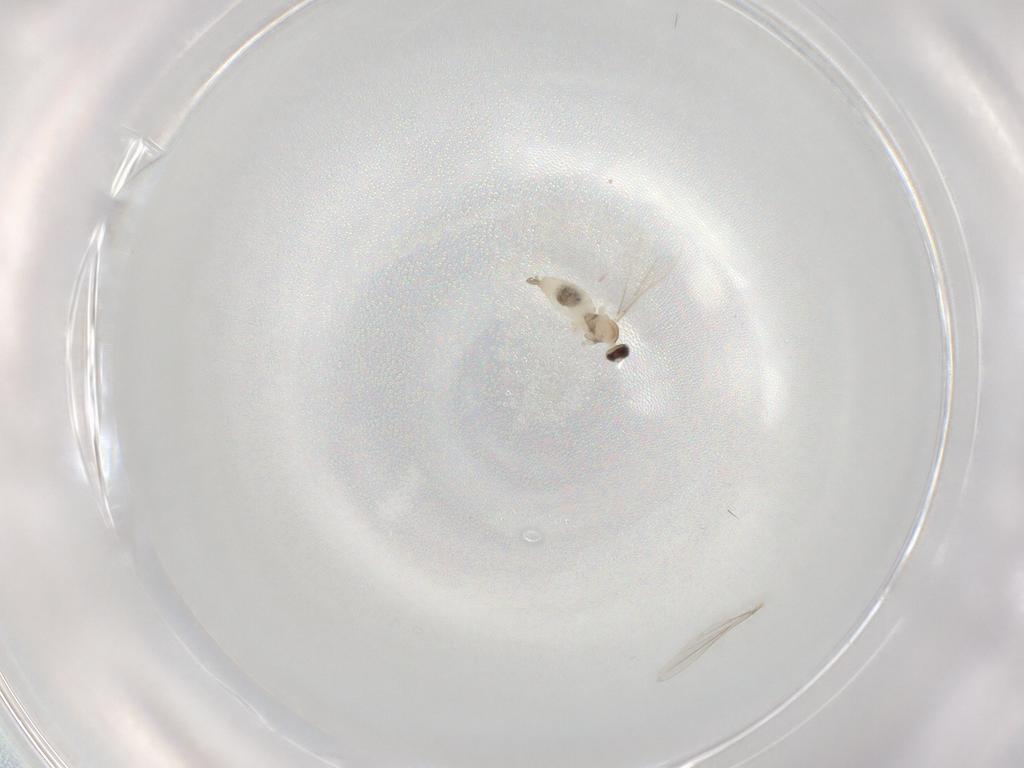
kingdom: Animalia
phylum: Arthropoda
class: Insecta
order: Diptera
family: Cecidomyiidae
